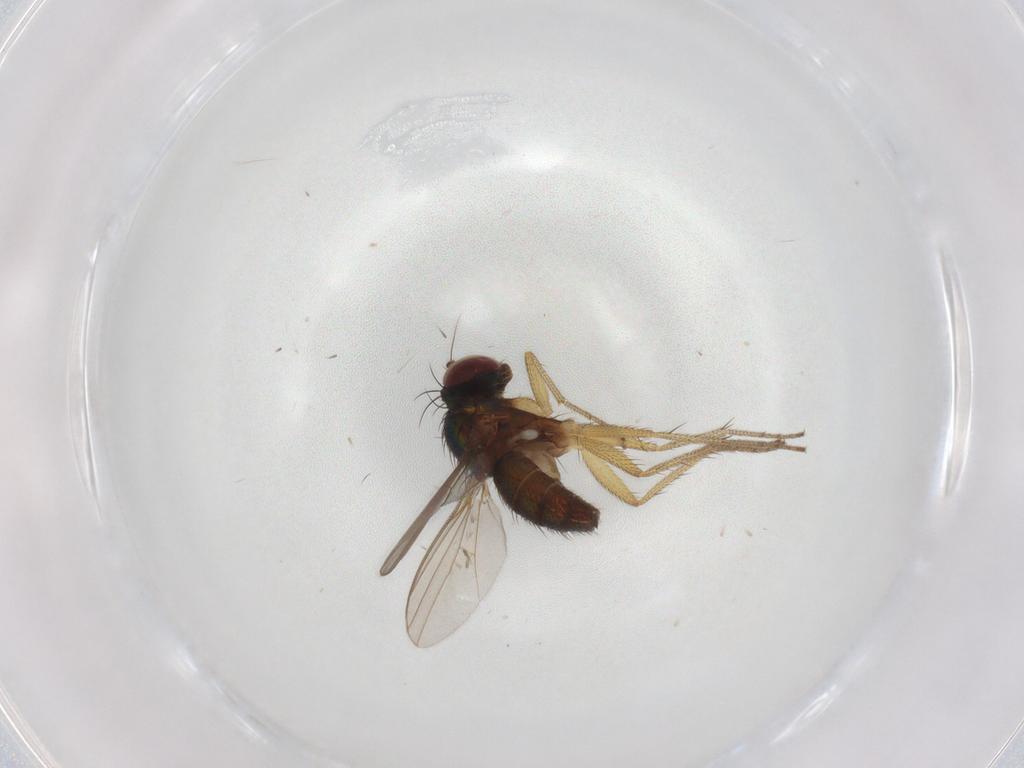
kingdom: Animalia
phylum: Arthropoda
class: Insecta
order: Diptera
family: Dolichopodidae
